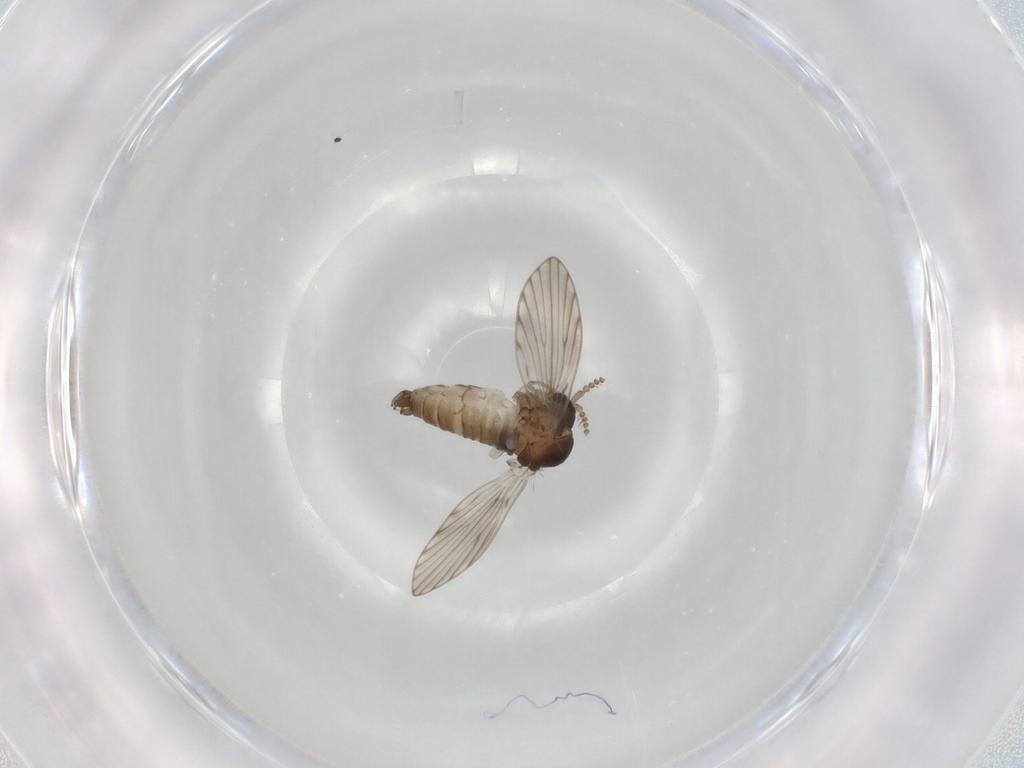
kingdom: Animalia
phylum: Arthropoda
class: Insecta
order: Diptera
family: Psychodidae
